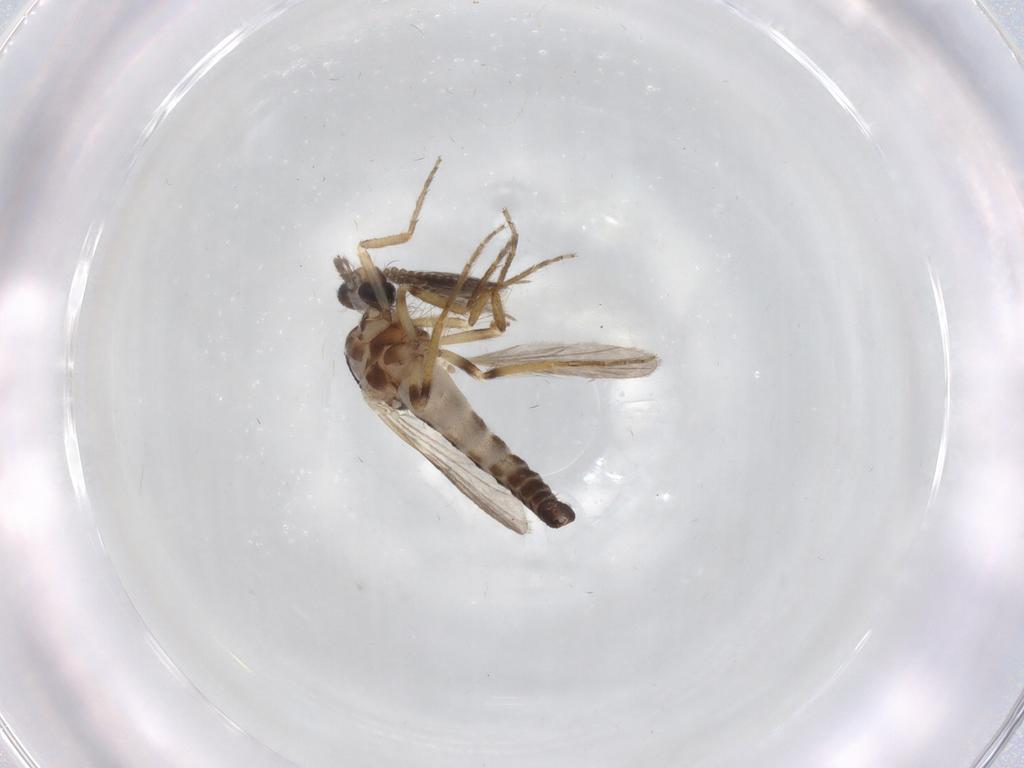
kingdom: Animalia
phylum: Arthropoda
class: Insecta
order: Diptera
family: Ceratopogonidae
